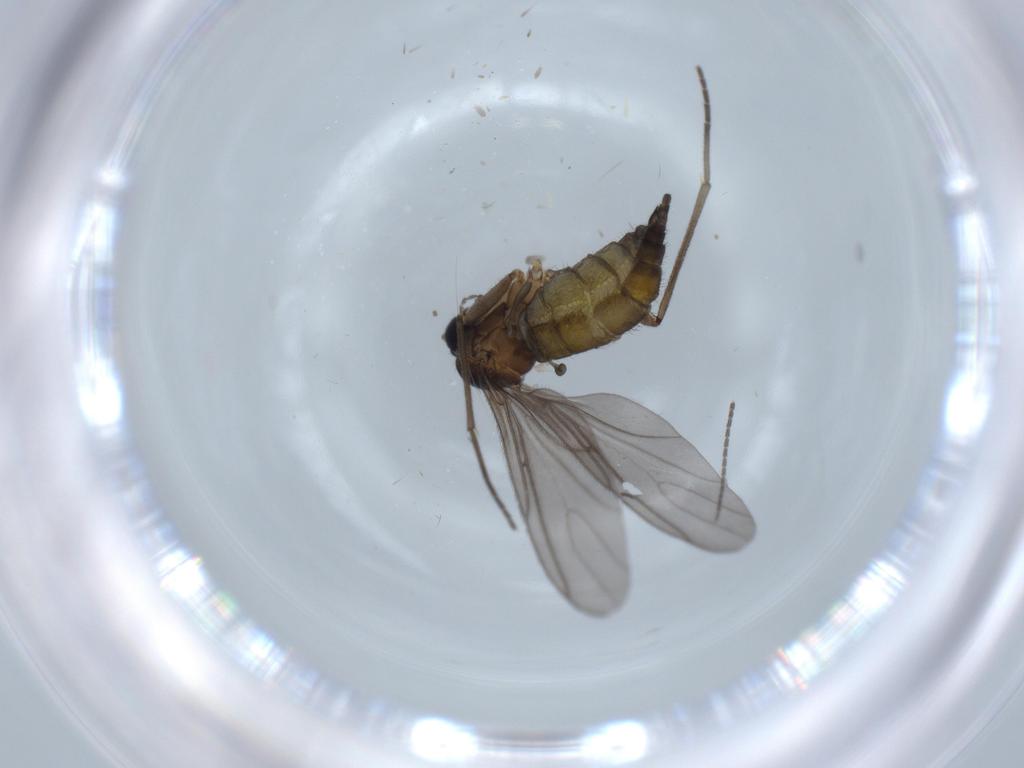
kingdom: Animalia
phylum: Arthropoda
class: Insecta
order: Diptera
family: Sciaridae
